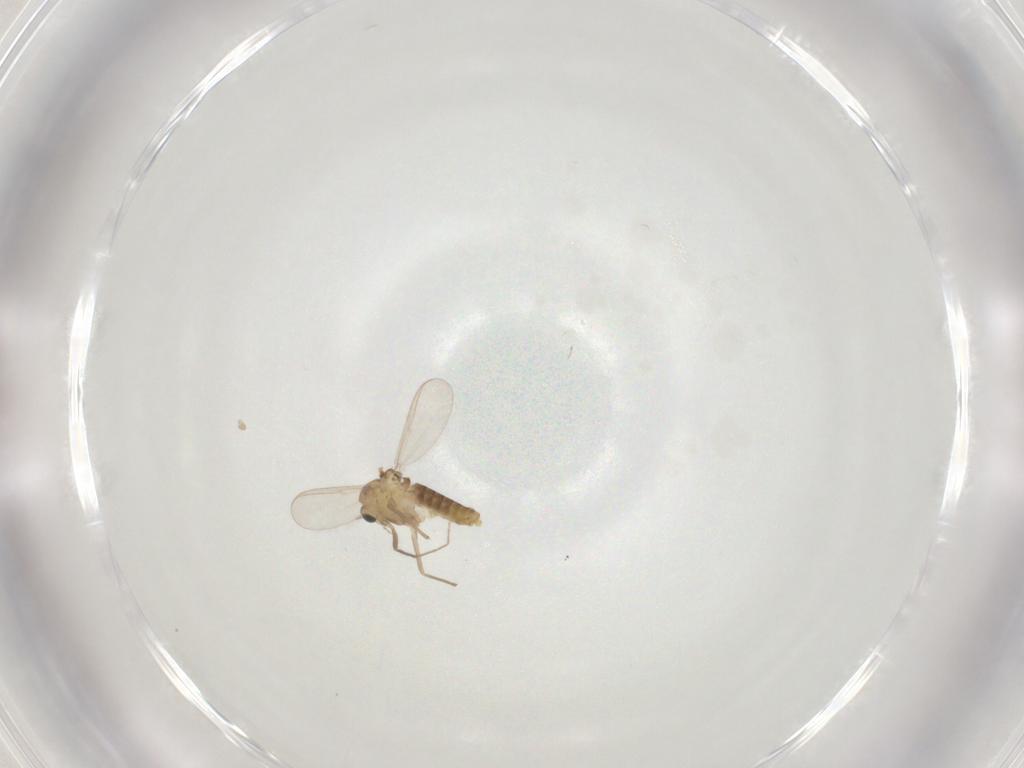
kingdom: Animalia
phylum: Arthropoda
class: Insecta
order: Diptera
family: Chironomidae
